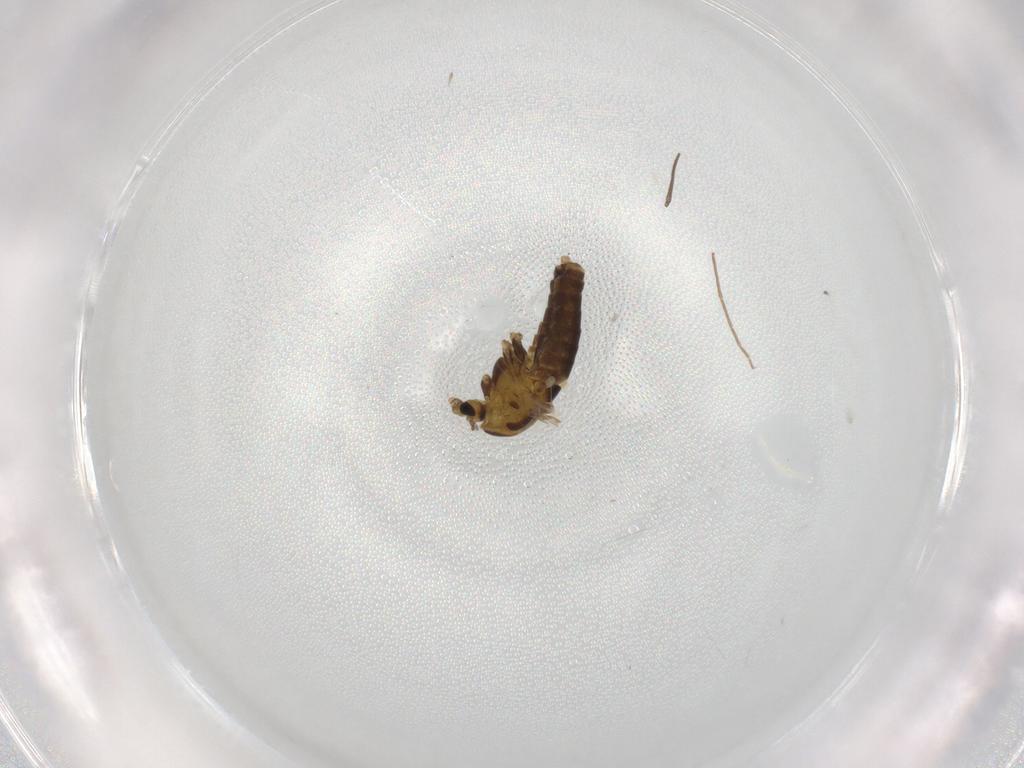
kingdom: Animalia
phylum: Arthropoda
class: Insecta
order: Diptera
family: Chironomidae
